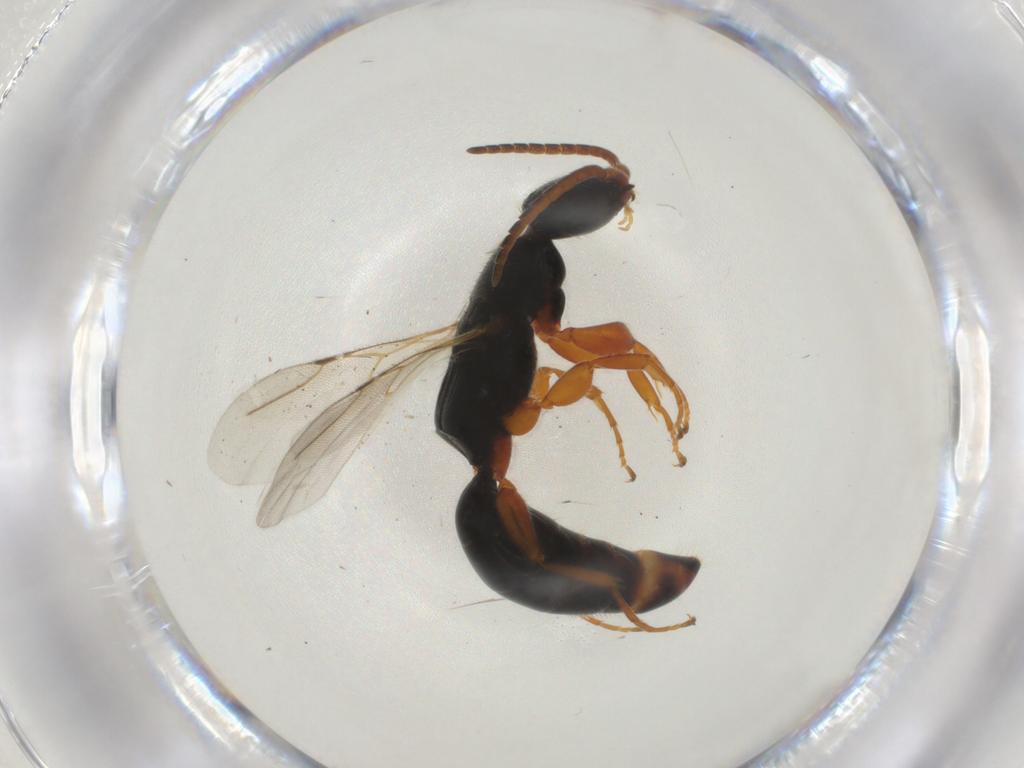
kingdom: Animalia
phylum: Arthropoda
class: Insecta
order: Hymenoptera
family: Bethylidae
